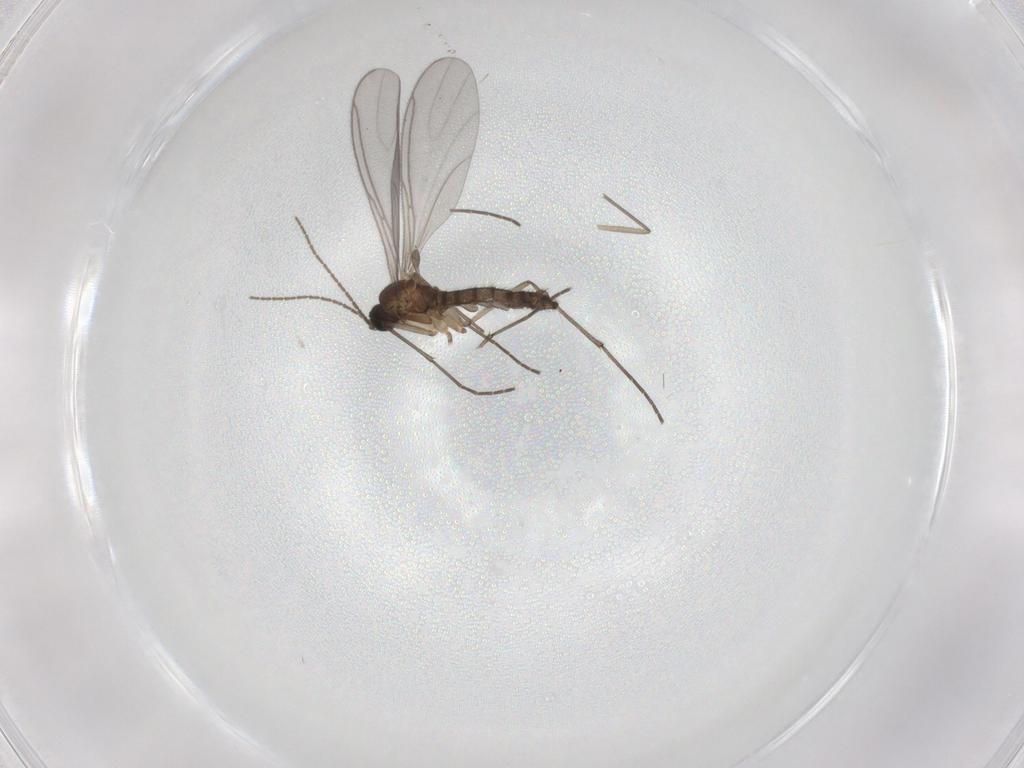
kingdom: Animalia
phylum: Arthropoda
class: Insecta
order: Diptera
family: Sciaridae
